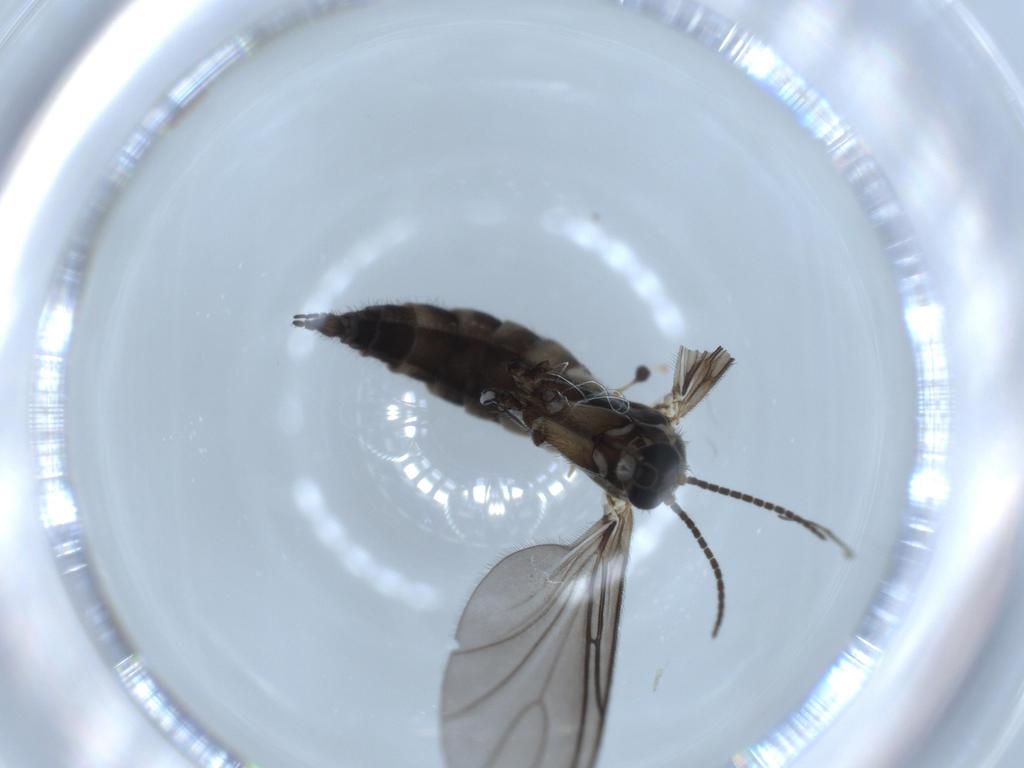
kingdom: Animalia
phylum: Arthropoda
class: Insecta
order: Diptera
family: Sciaridae
